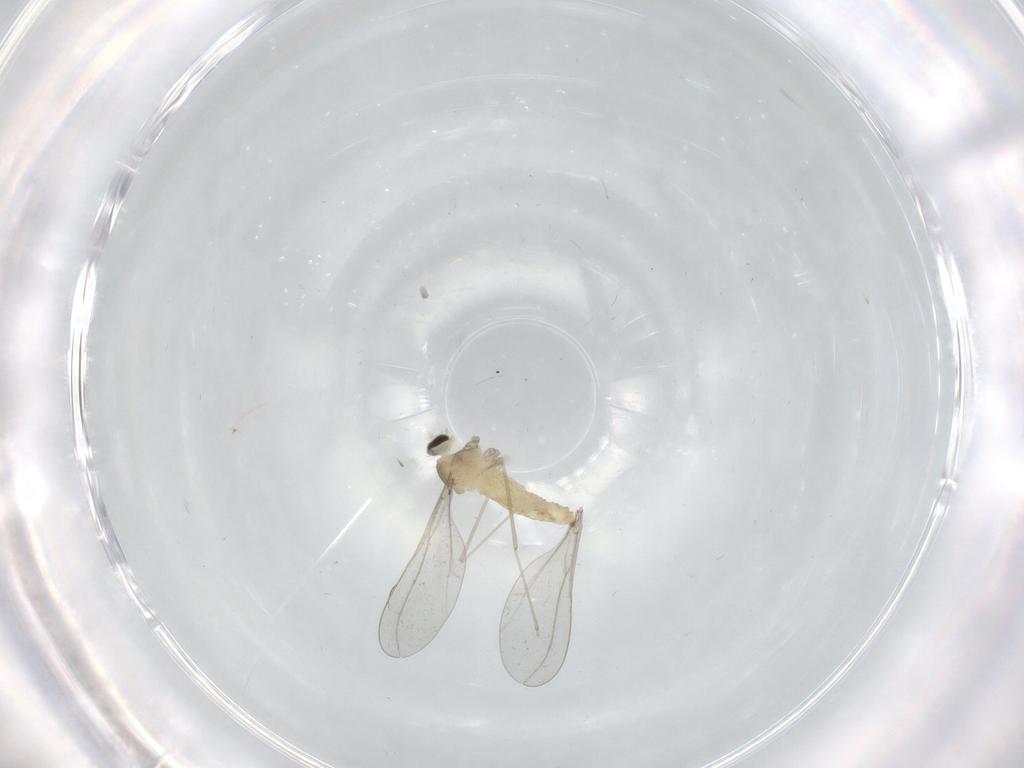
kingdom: Animalia
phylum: Arthropoda
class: Insecta
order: Diptera
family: Cecidomyiidae
